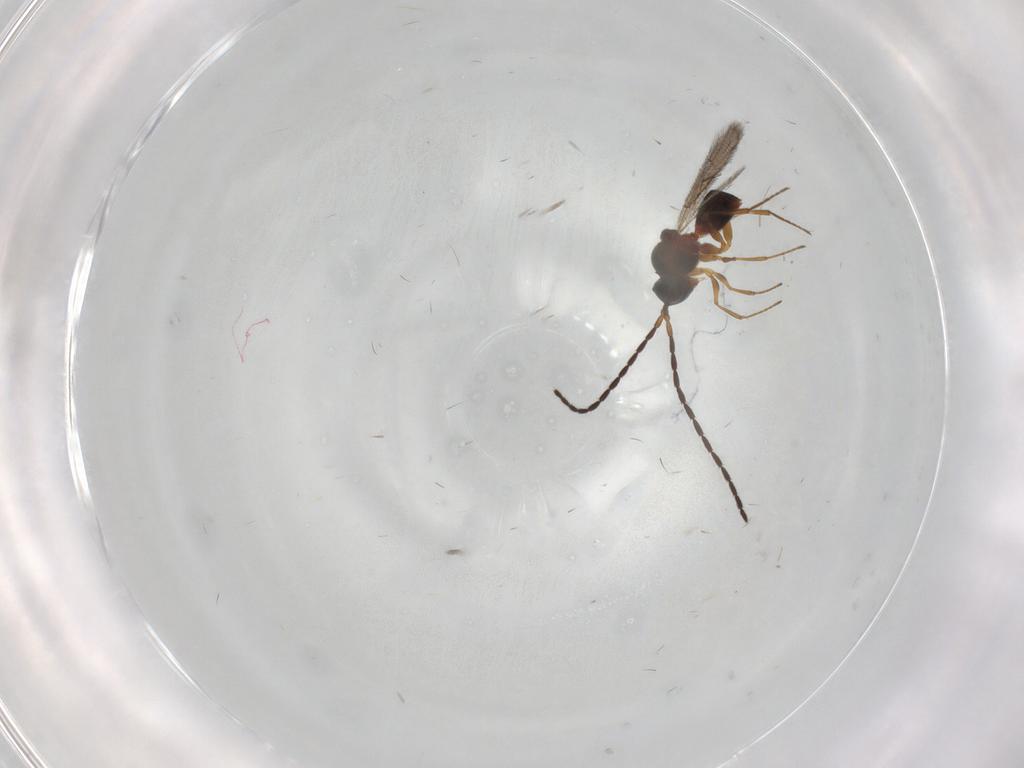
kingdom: Animalia
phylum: Arthropoda
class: Insecta
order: Hymenoptera
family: Figitidae
